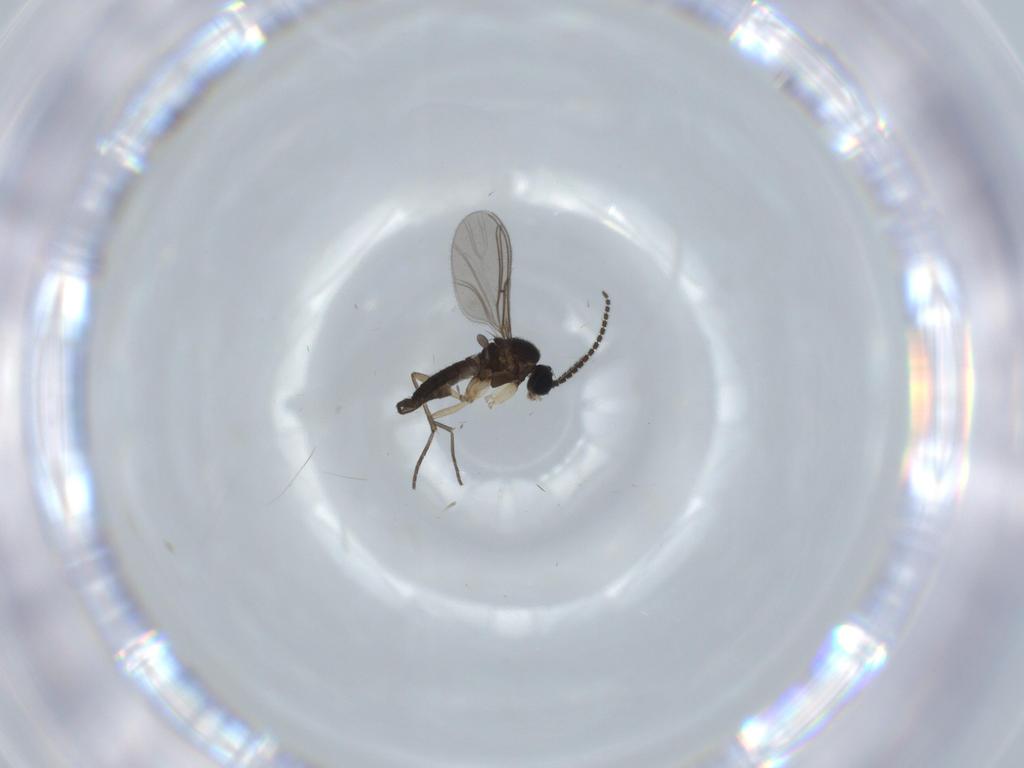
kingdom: Animalia
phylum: Arthropoda
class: Insecta
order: Diptera
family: Sciaridae
